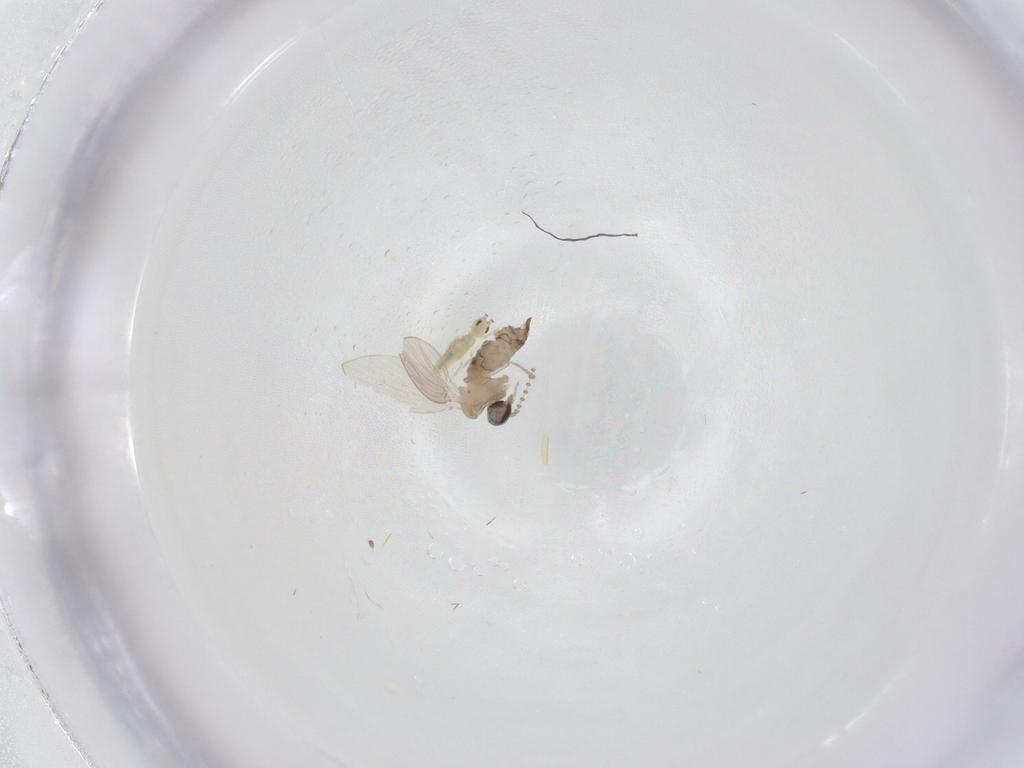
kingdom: Animalia
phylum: Arthropoda
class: Insecta
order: Diptera
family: Psychodidae
